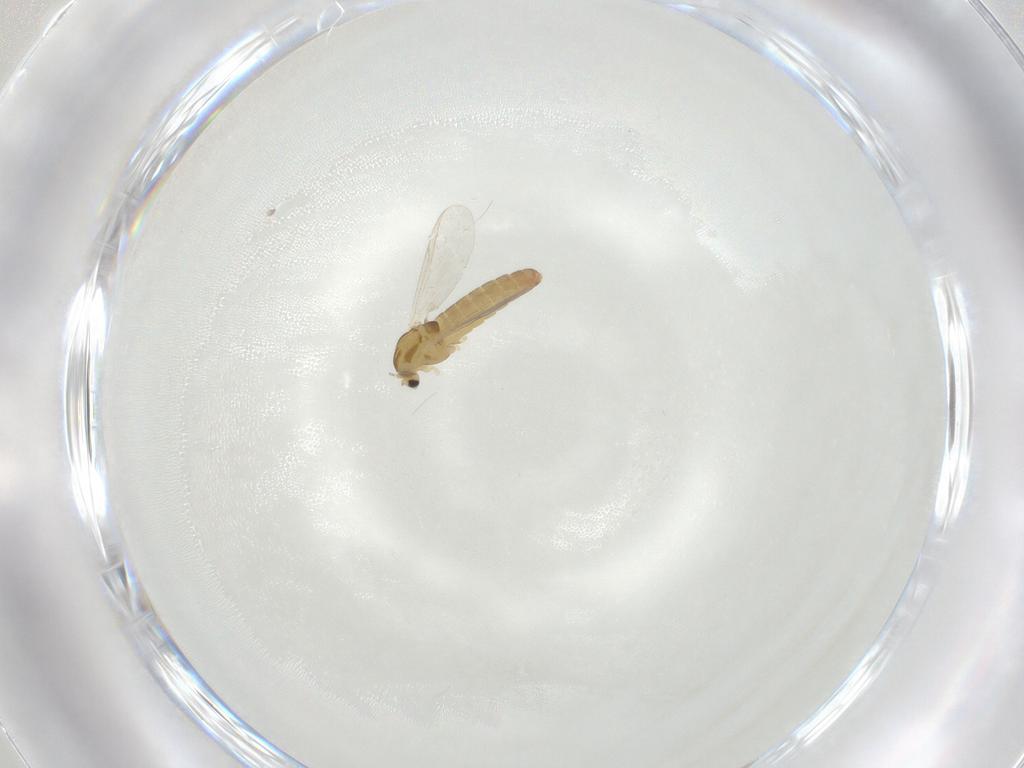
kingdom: Animalia
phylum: Arthropoda
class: Insecta
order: Diptera
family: Chironomidae
